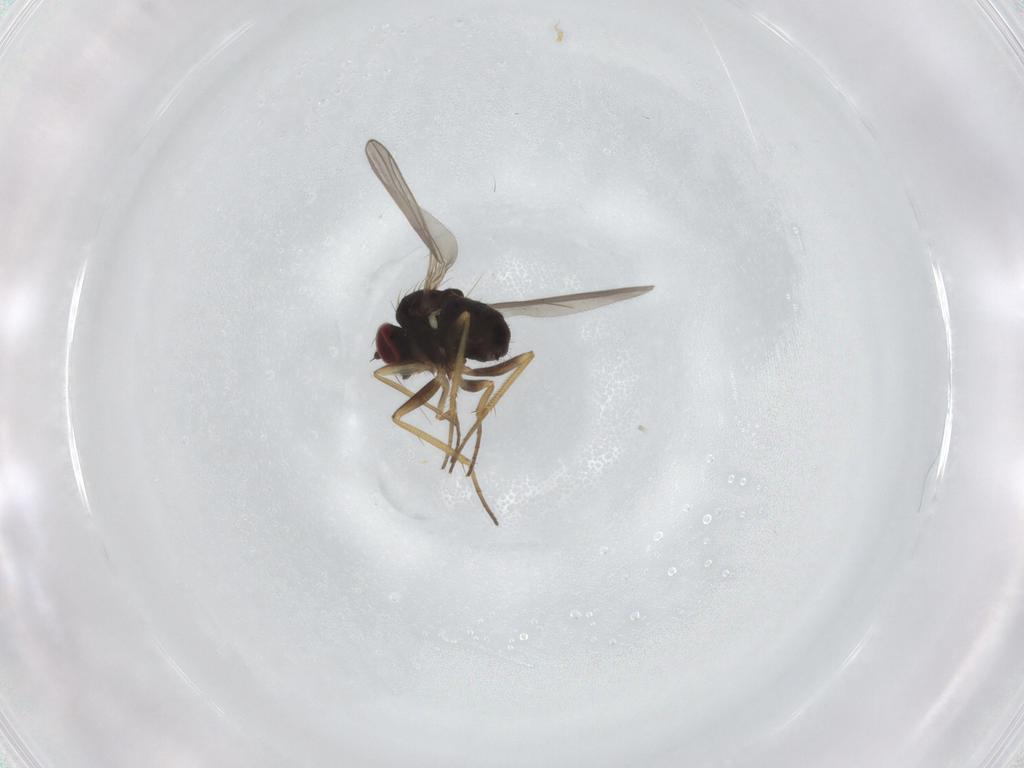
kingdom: Animalia
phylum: Arthropoda
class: Insecta
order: Diptera
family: Dolichopodidae
